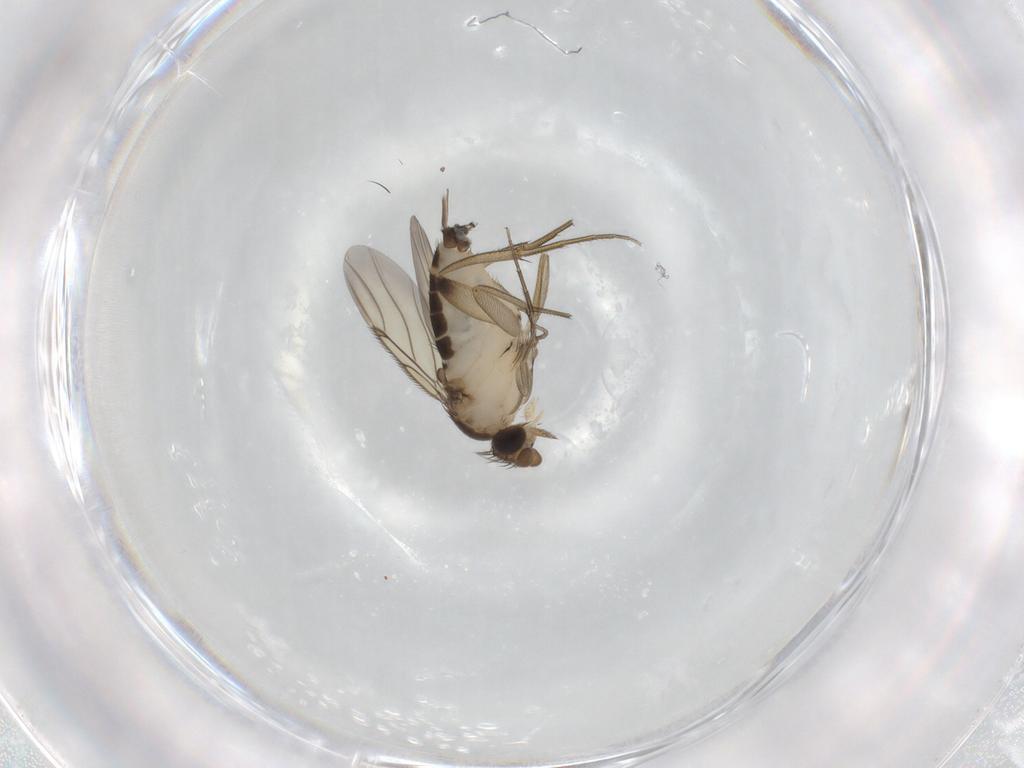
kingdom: Animalia
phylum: Arthropoda
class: Insecta
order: Diptera
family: Phoridae
